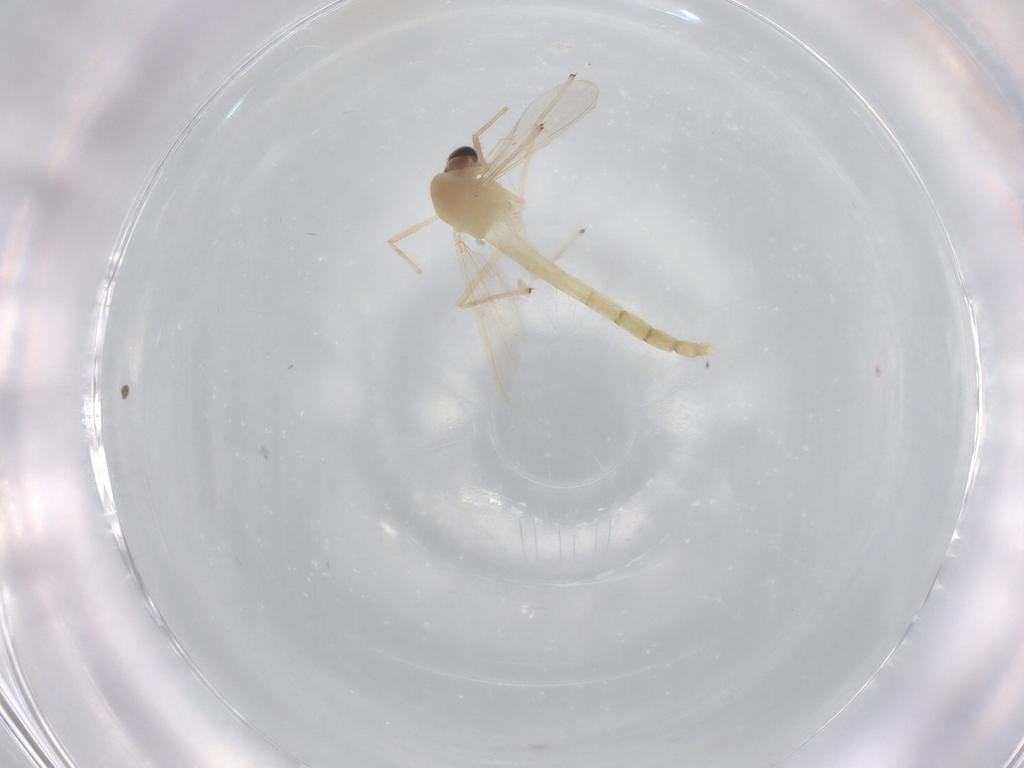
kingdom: Animalia
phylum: Arthropoda
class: Insecta
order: Diptera
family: Chironomidae
